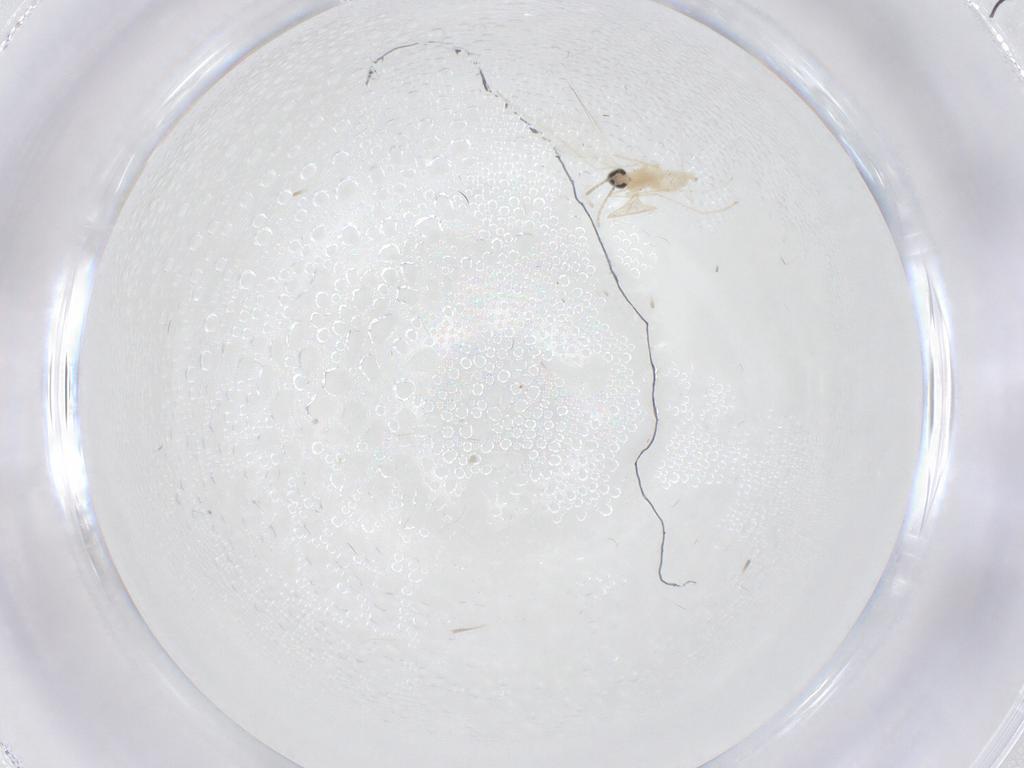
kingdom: Animalia
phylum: Arthropoda
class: Insecta
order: Diptera
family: Cecidomyiidae
